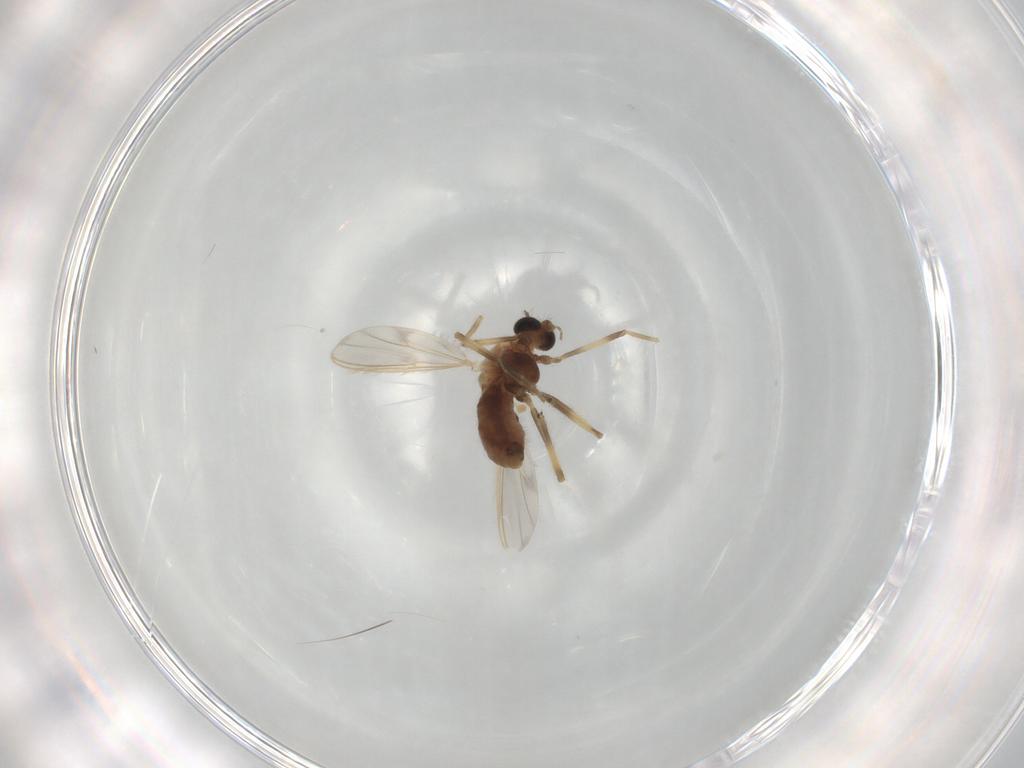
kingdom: Animalia
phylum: Arthropoda
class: Insecta
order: Diptera
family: Chironomidae
